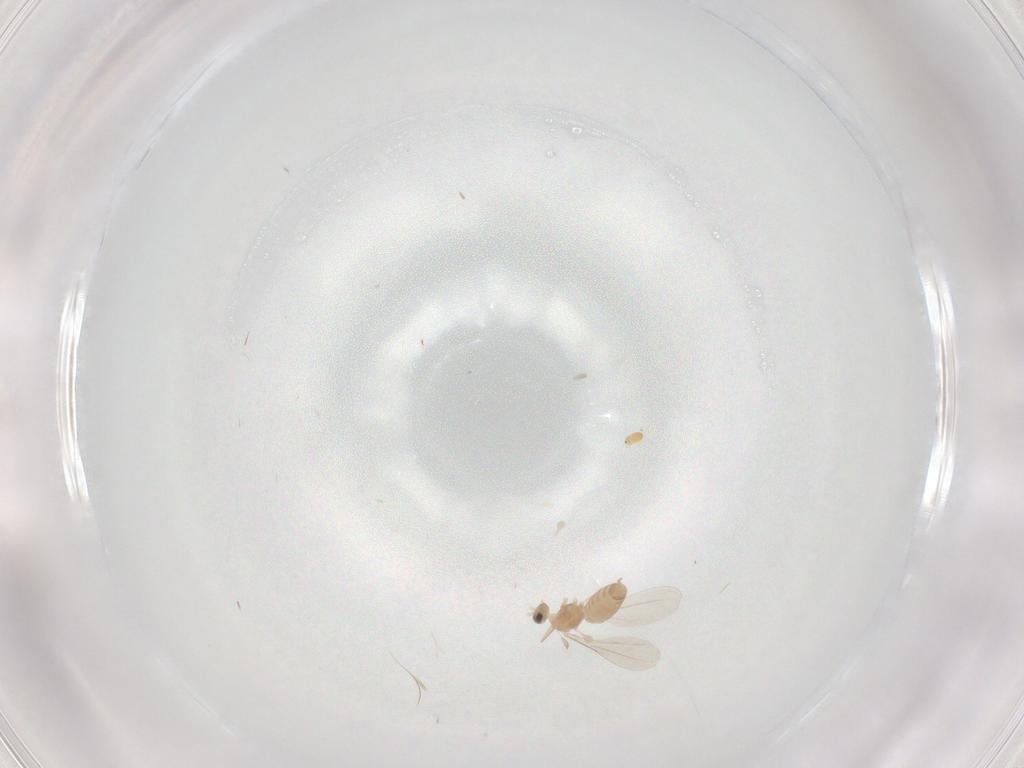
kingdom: Animalia
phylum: Arthropoda
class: Insecta
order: Diptera
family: Cecidomyiidae
